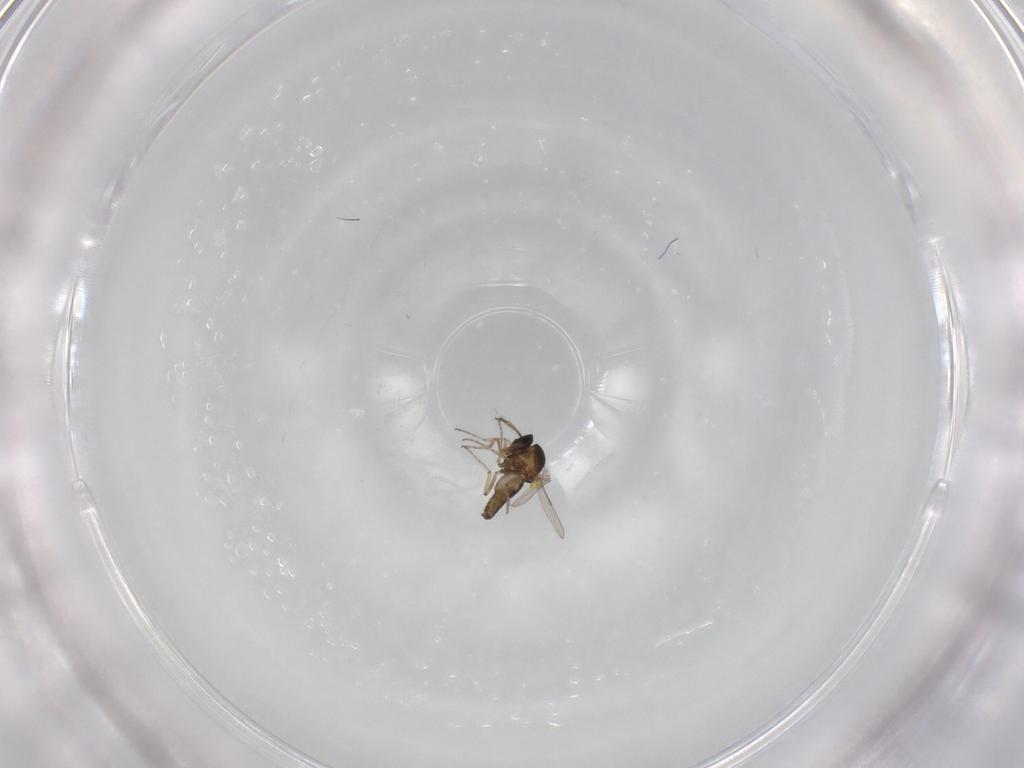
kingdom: Animalia
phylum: Arthropoda
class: Insecta
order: Diptera
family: Ceratopogonidae
